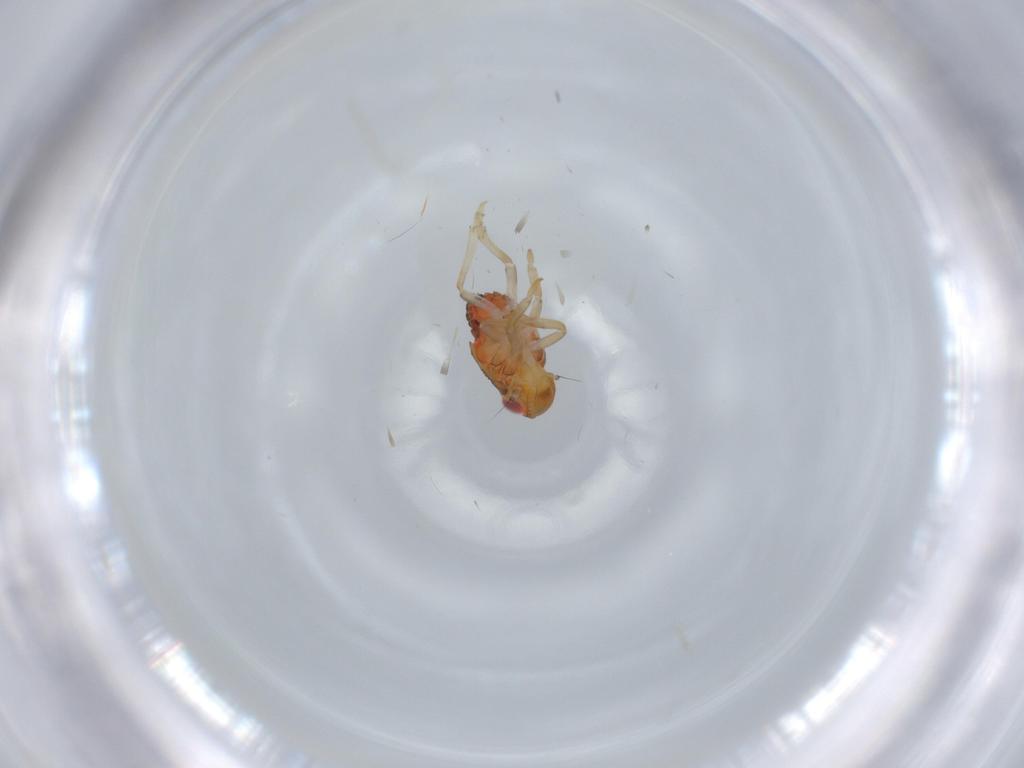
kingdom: Animalia
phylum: Arthropoda
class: Insecta
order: Hemiptera
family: Issidae
